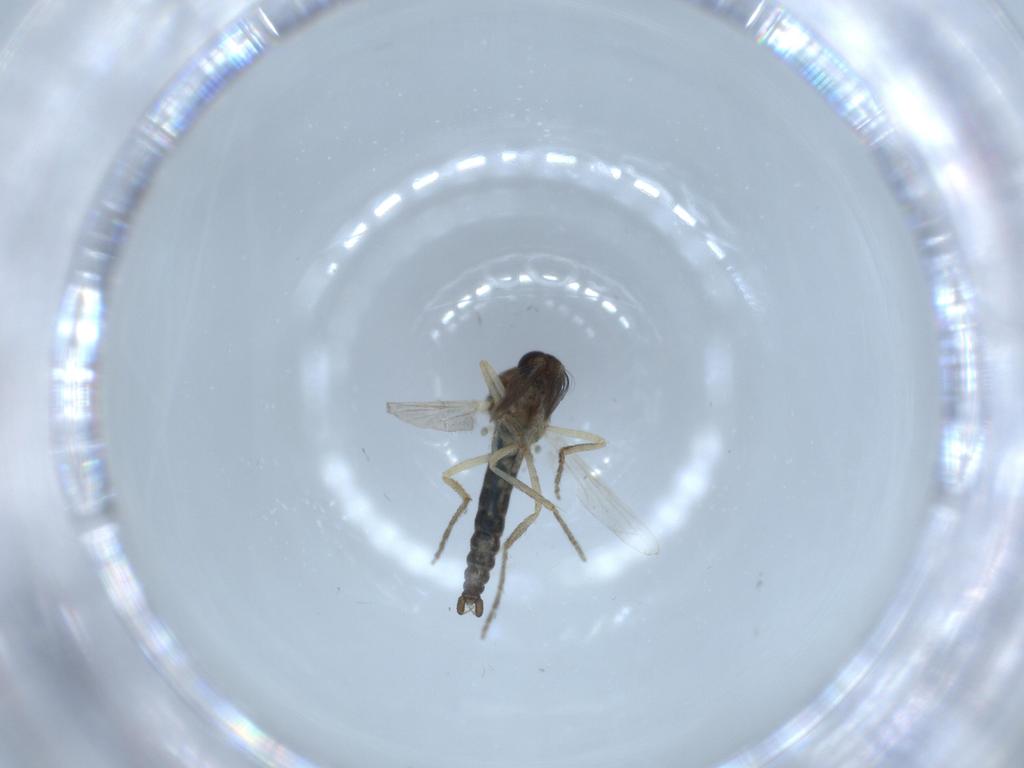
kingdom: Animalia
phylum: Arthropoda
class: Insecta
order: Diptera
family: Ceratopogonidae
